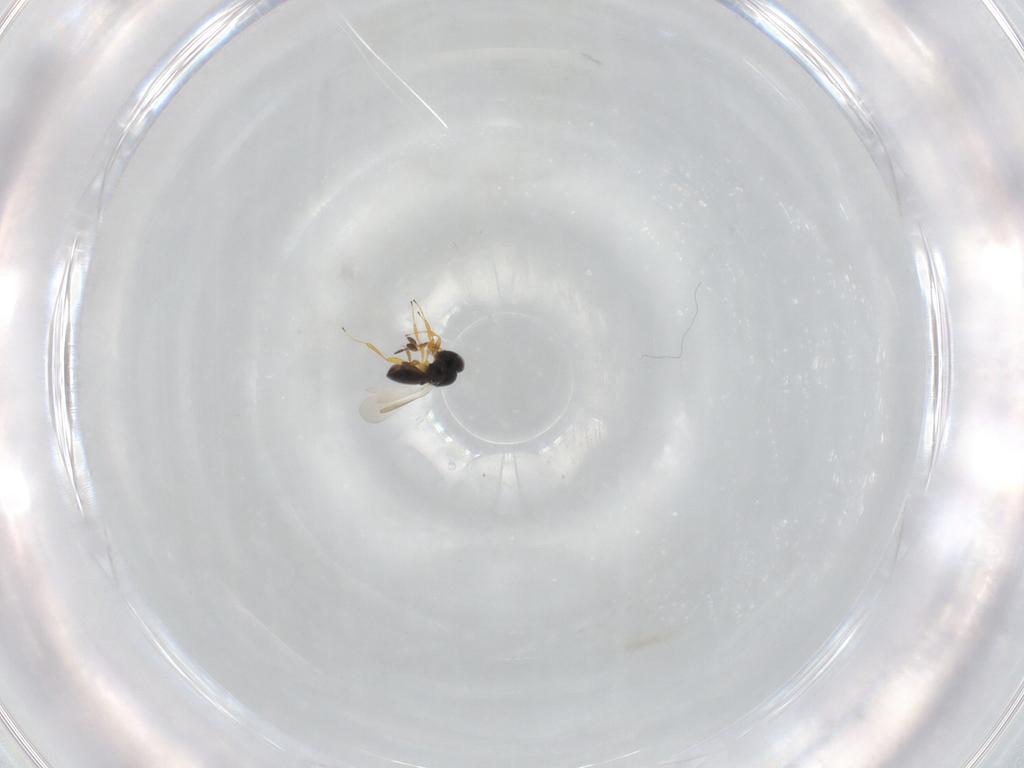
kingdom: Animalia
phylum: Arthropoda
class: Insecta
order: Hymenoptera
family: Platygastridae
